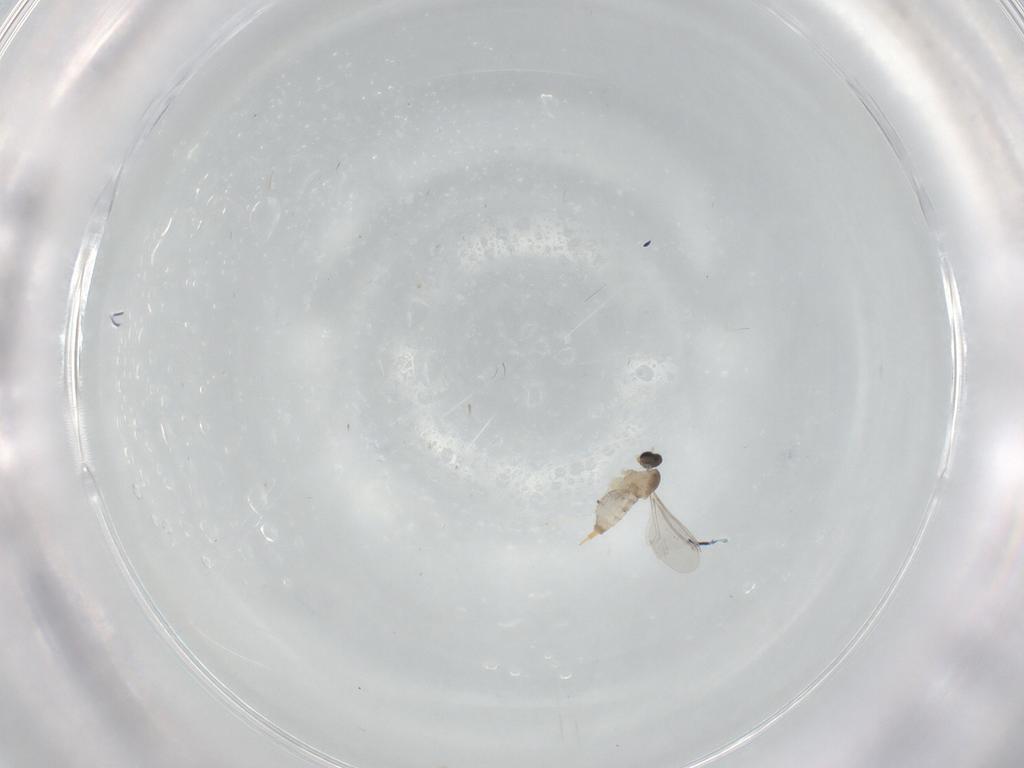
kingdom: Animalia
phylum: Arthropoda
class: Insecta
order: Diptera
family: Cecidomyiidae
